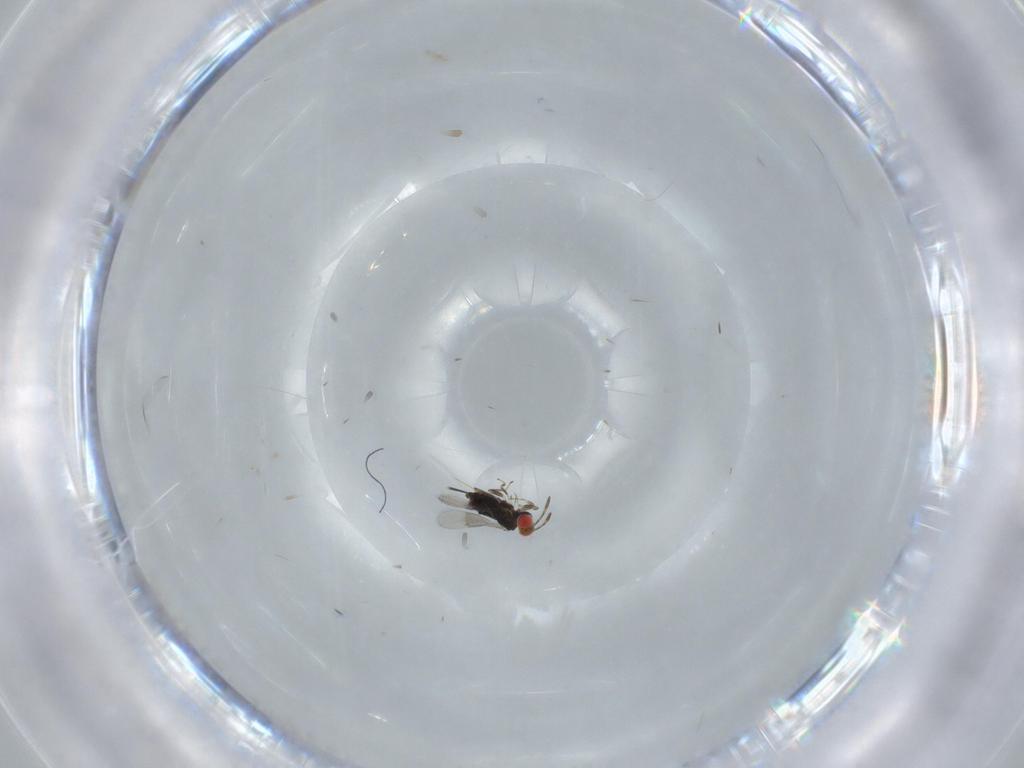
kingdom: Animalia
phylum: Arthropoda
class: Insecta
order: Hymenoptera
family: Azotidae
